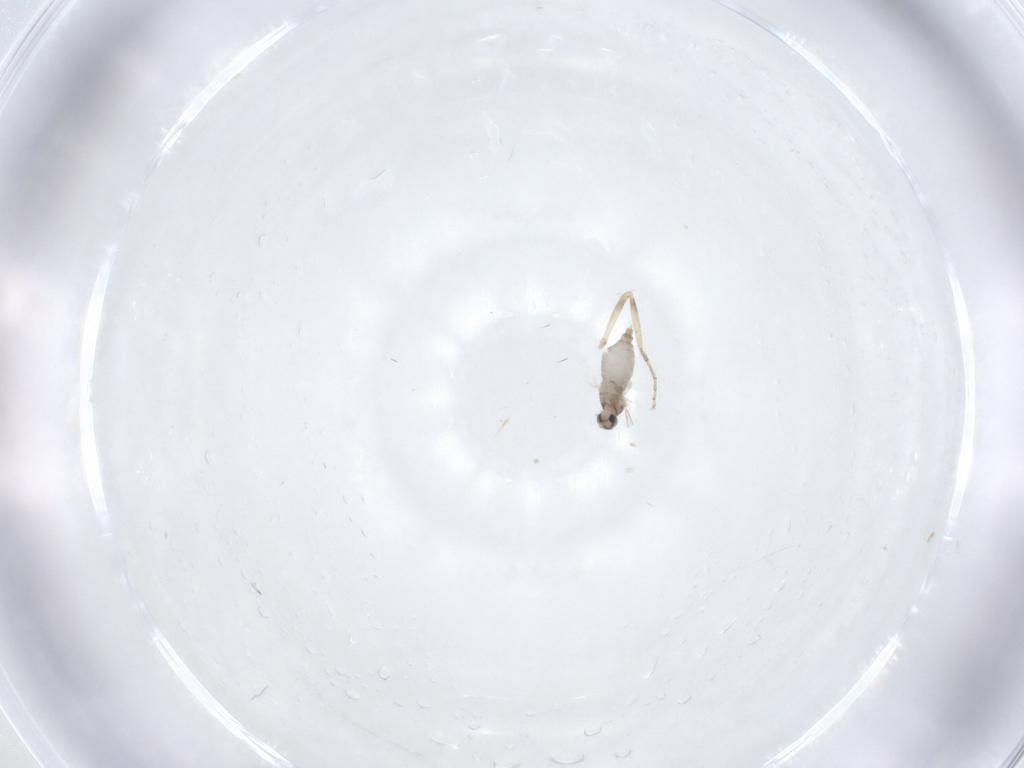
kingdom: Animalia
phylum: Arthropoda
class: Insecta
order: Diptera
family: Ceratopogonidae
